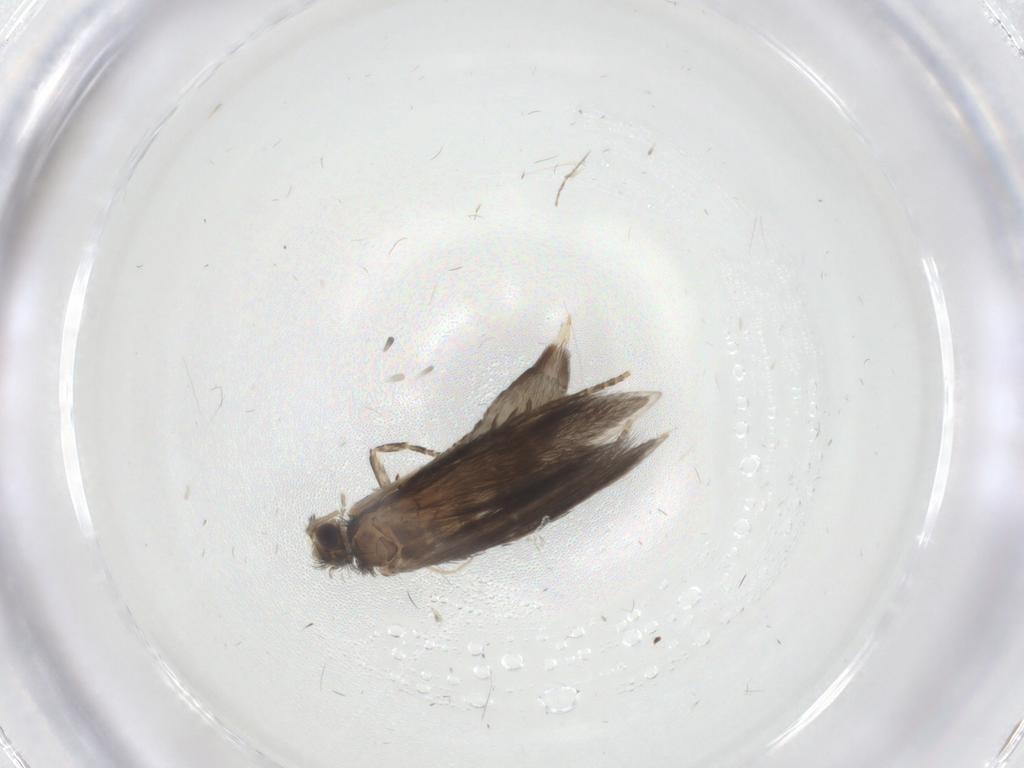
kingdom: Animalia
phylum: Arthropoda
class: Insecta
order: Trichoptera
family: Hydroptilidae
